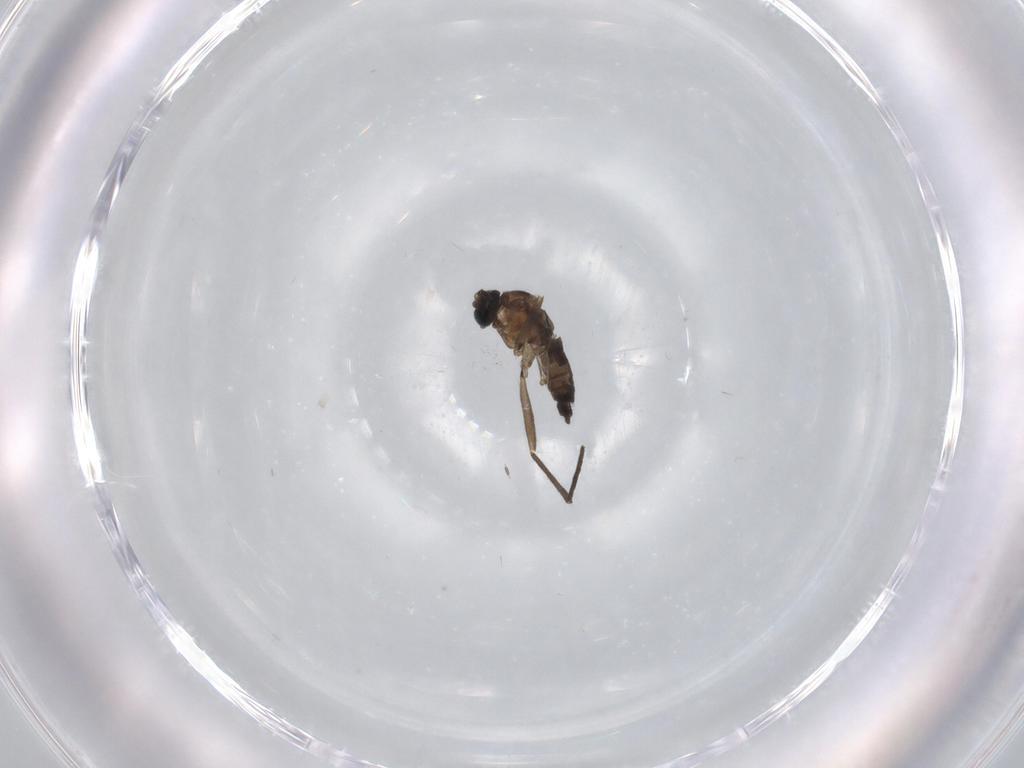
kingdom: Animalia
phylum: Arthropoda
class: Insecta
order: Diptera
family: Sciaridae
